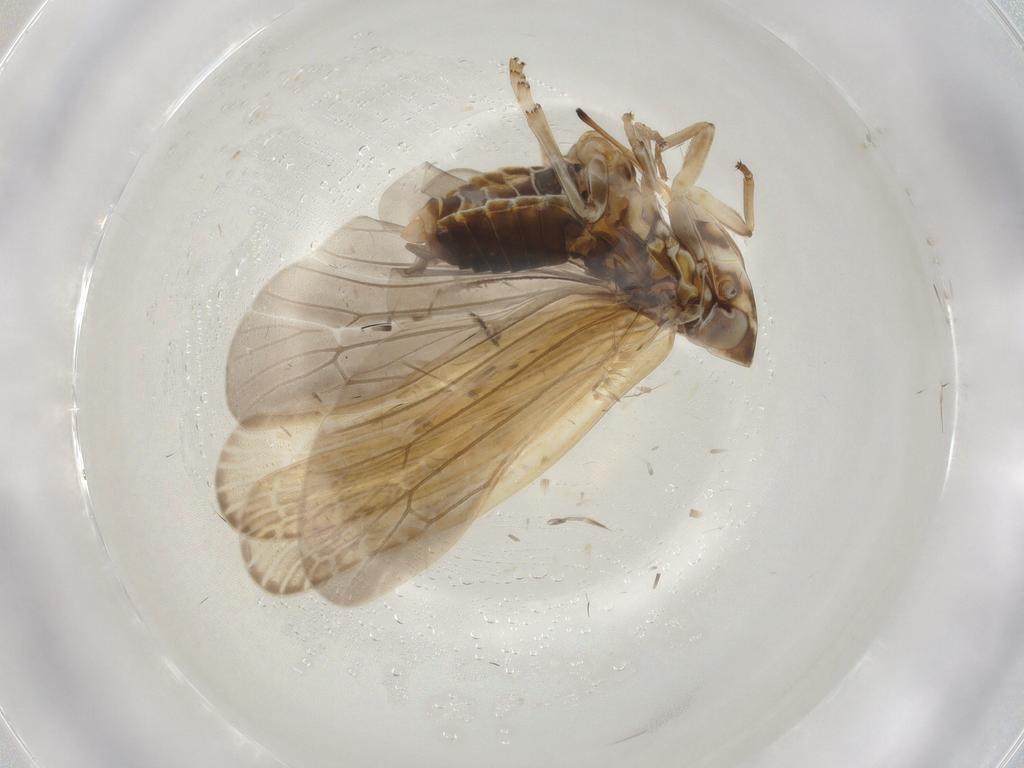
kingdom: Animalia
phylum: Arthropoda
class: Insecta
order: Hemiptera
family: Achilidae
